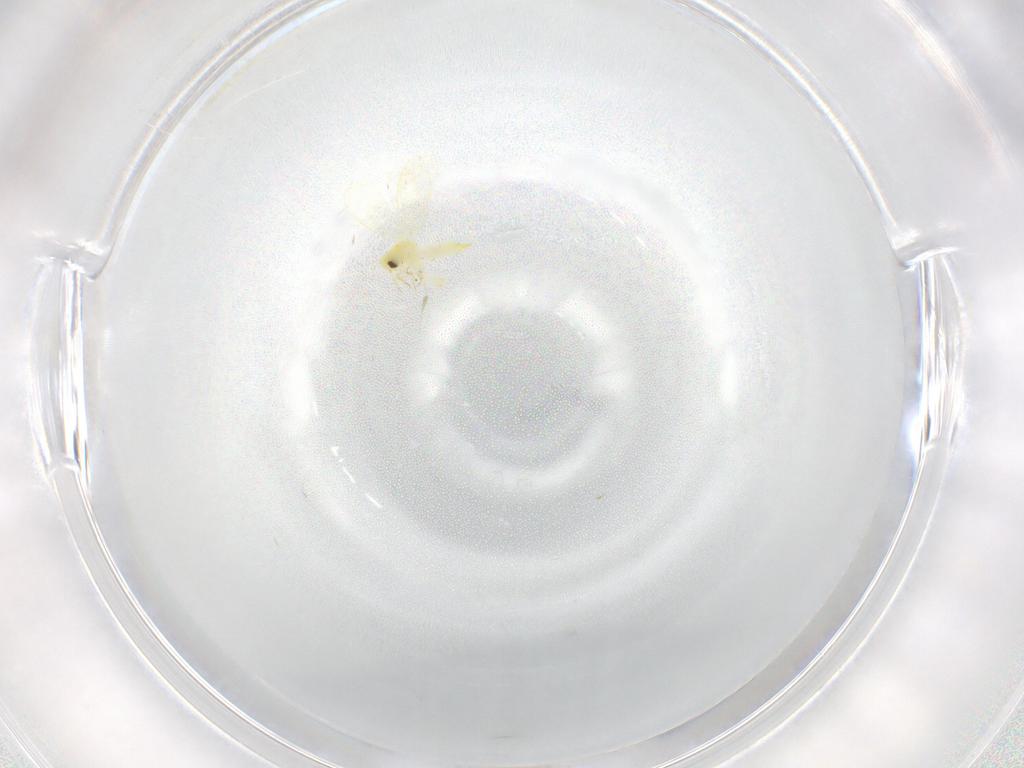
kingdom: Animalia
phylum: Arthropoda
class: Insecta
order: Hemiptera
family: Aleyrodidae
